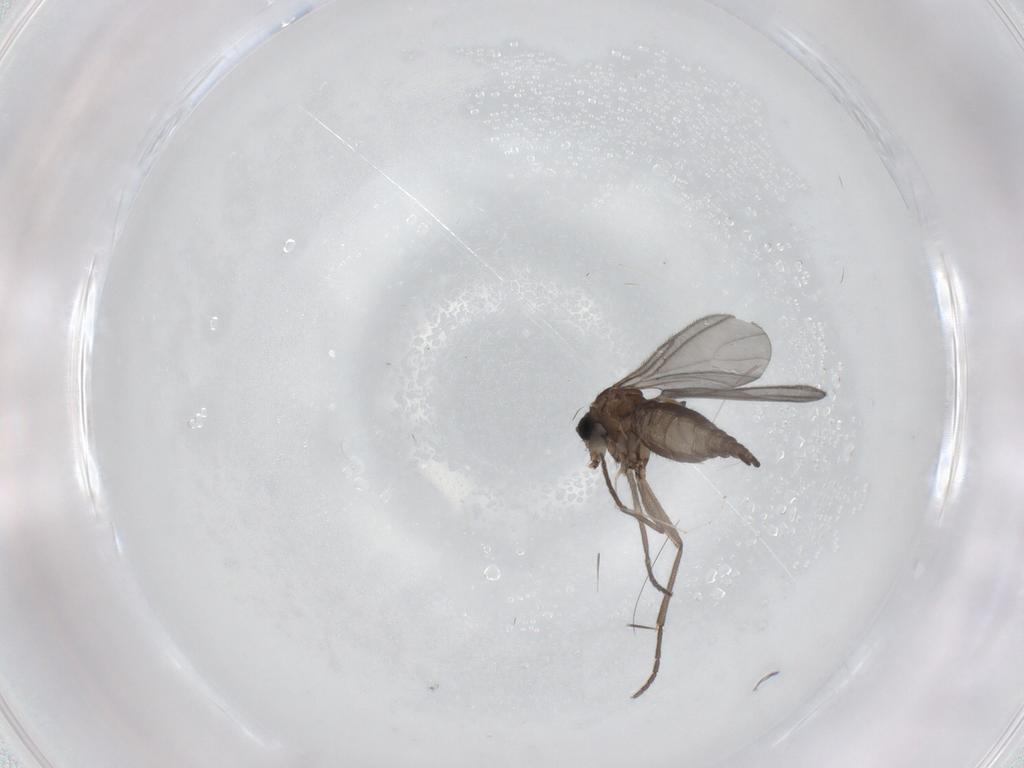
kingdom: Animalia
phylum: Arthropoda
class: Insecta
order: Diptera
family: Sciaridae
